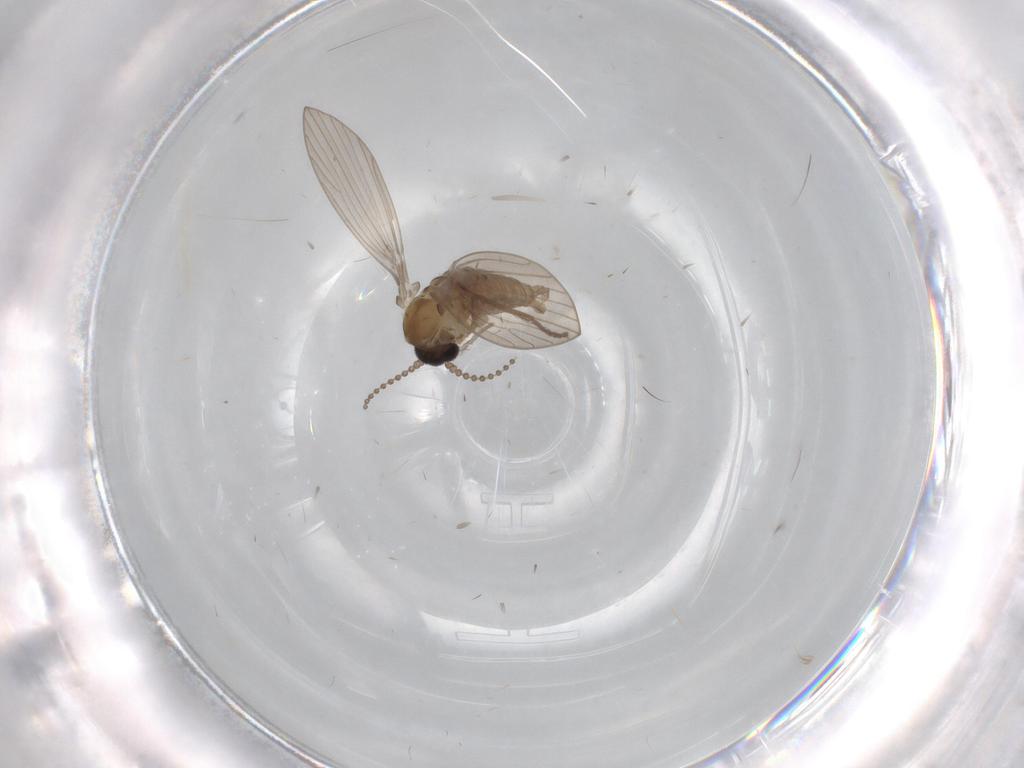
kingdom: Animalia
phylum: Arthropoda
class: Insecta
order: Diptera
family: Psychodidae
